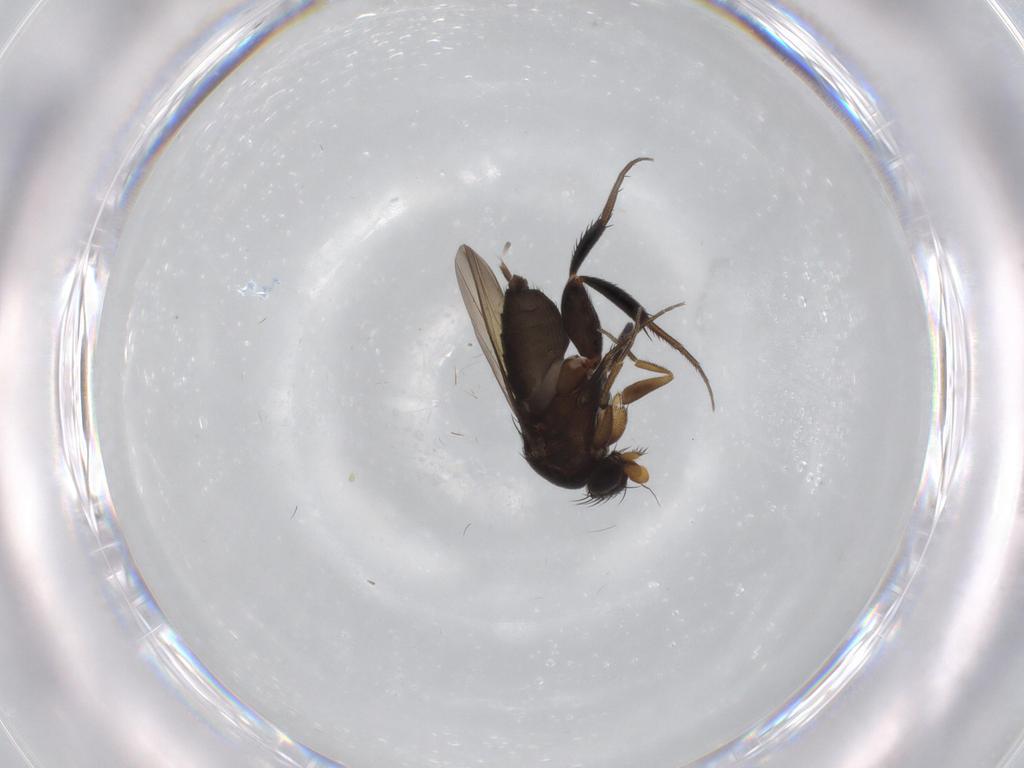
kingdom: Animalia
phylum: Arthropoda
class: Insecta
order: Diptera
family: Phoridae
